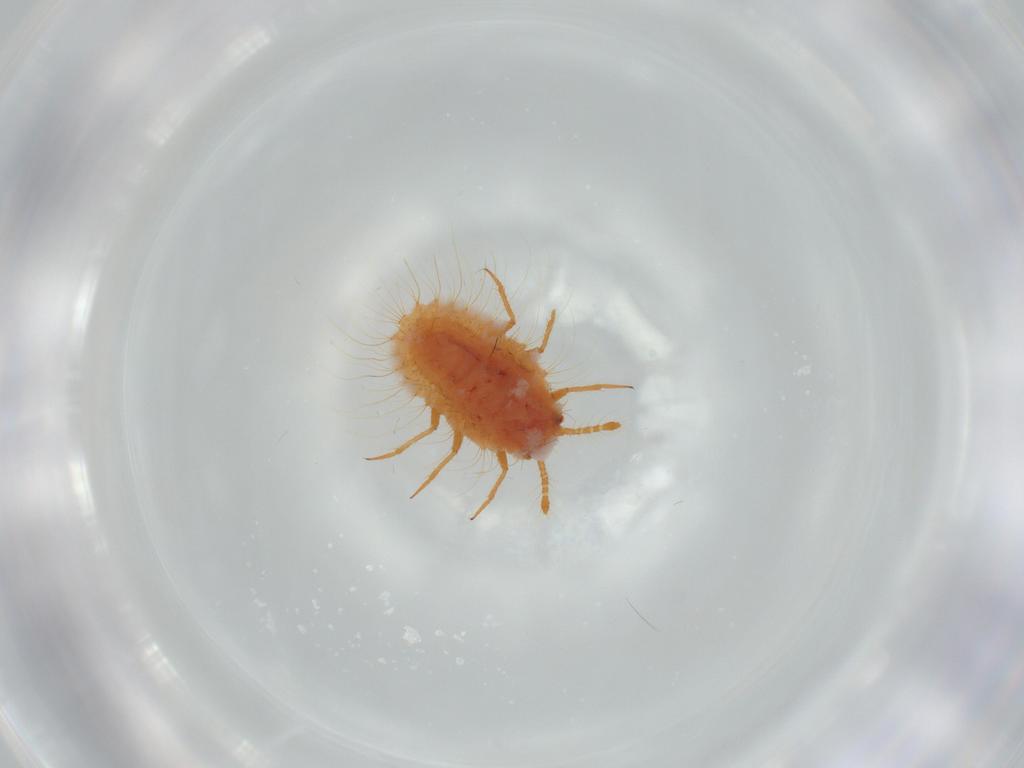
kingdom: Animalia
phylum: Arthropoda
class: Insecta
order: Hemiptera
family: Coccoidea_incertae_sedis
